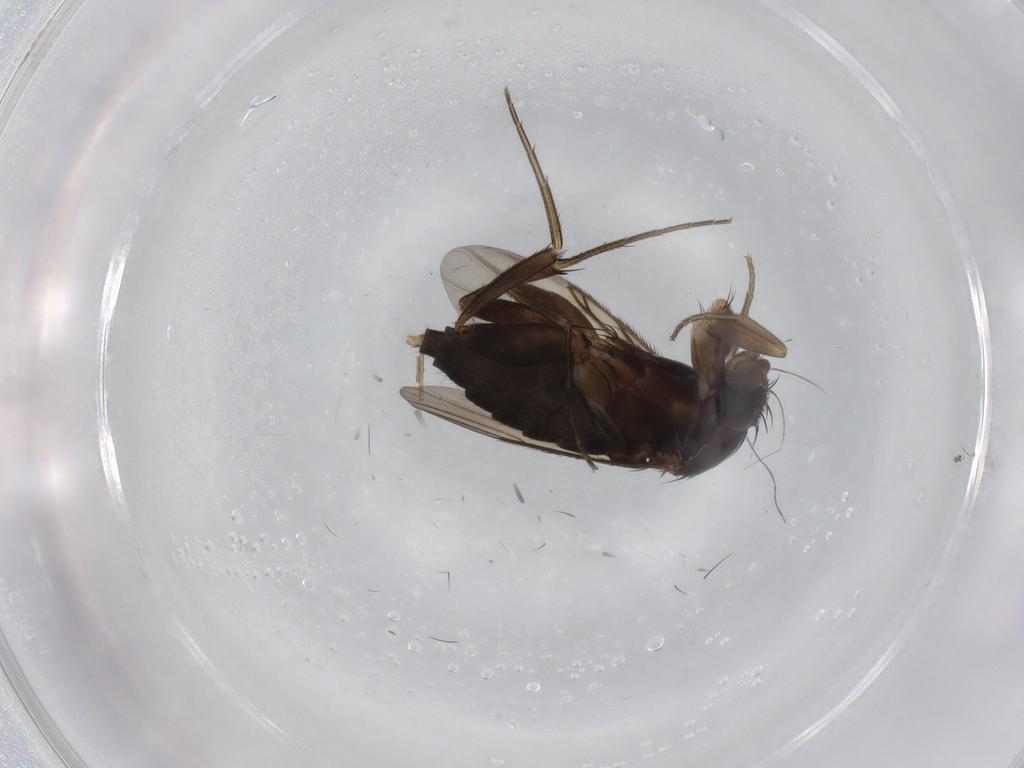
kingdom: Animalia
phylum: Arthropoda
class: Insecta
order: Diptera
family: Phoridae
